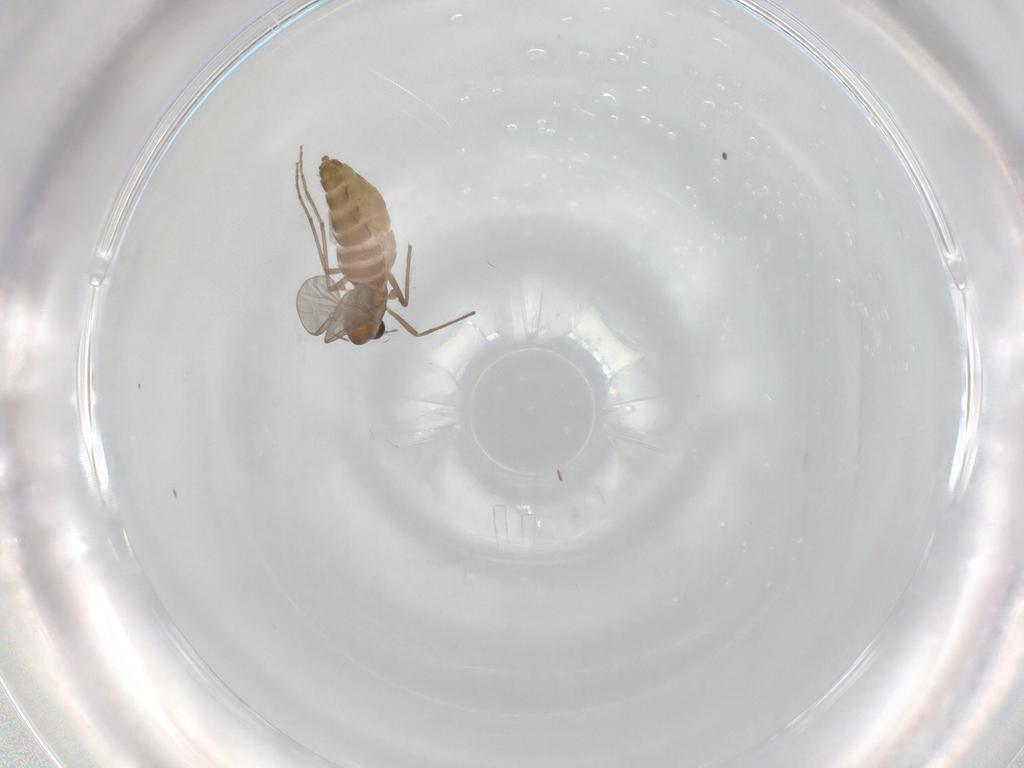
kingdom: Animalia
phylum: Arthropoda
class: Insecta
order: Diptera
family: Chironomidae
